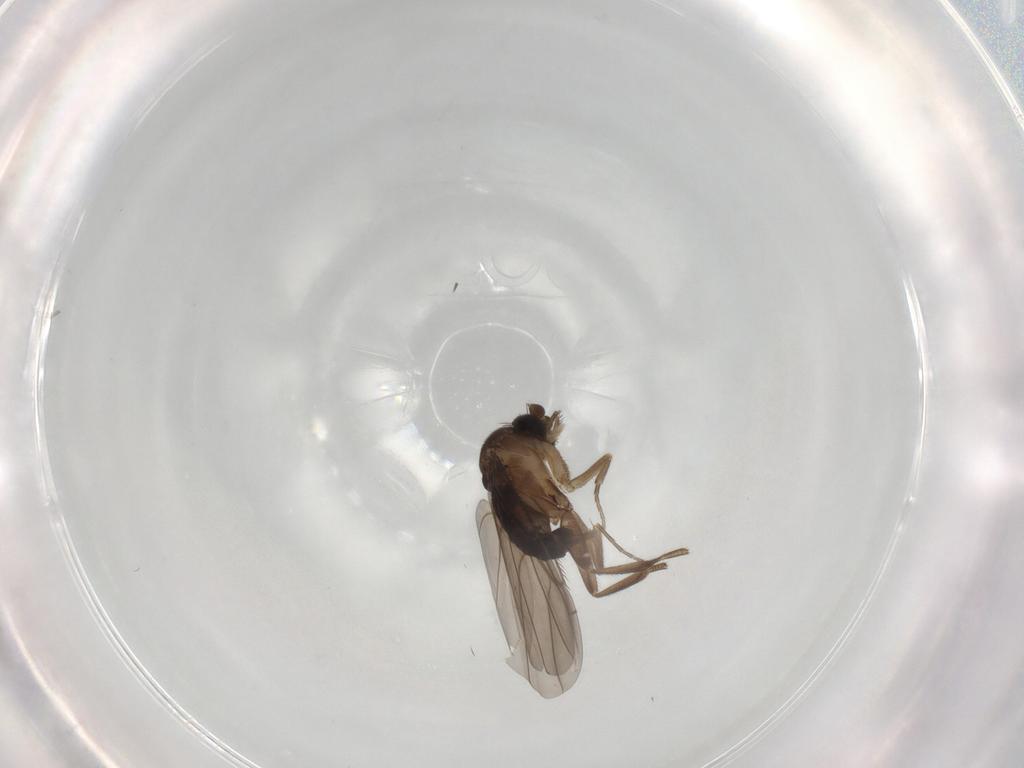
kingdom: Animalia
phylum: Arthropoda
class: Insecta
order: Diptera
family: Phoridae
